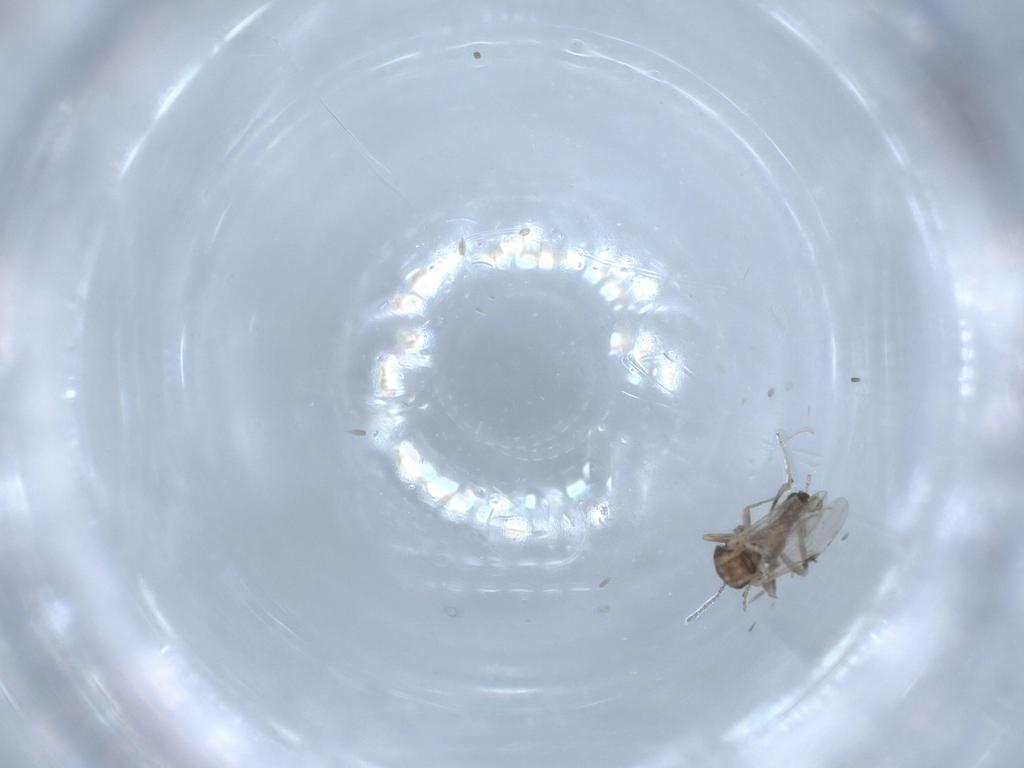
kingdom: Animalia
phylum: Arthropoda
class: Insecta
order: Diptera
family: Ceratopogonidae
